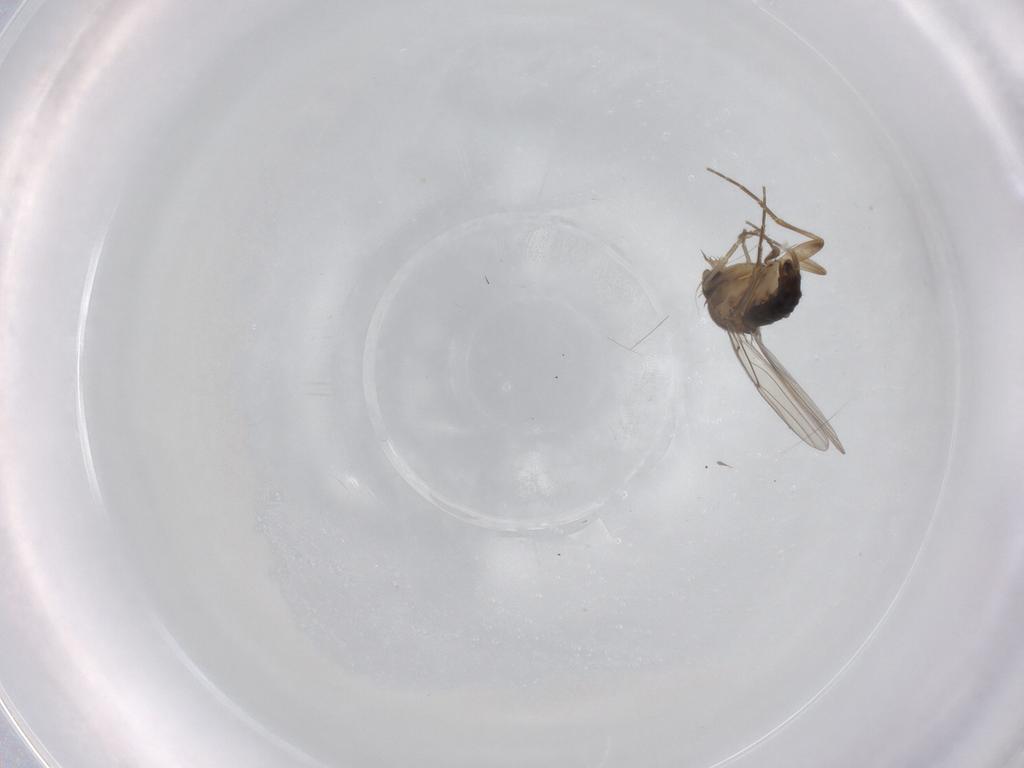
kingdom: Animalia
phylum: Arthropoda
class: Insecta
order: Diptera
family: Phoridae
